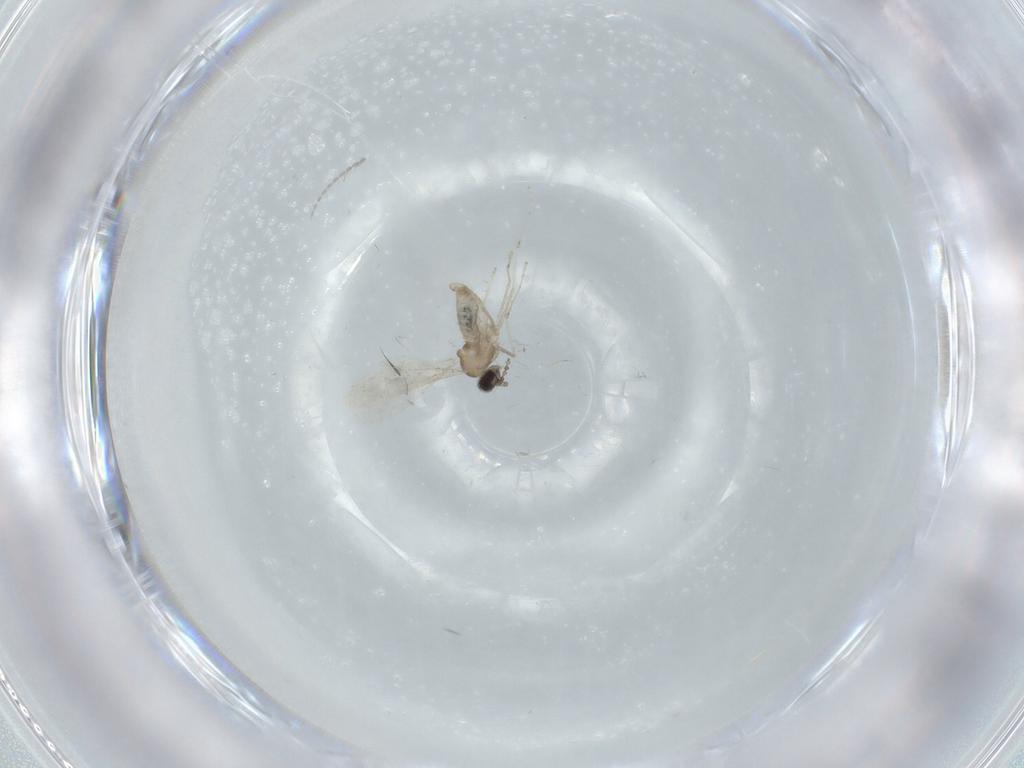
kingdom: Animalia
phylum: Arthropoda
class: Insecta
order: Diptera
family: Cecidomyiidae
